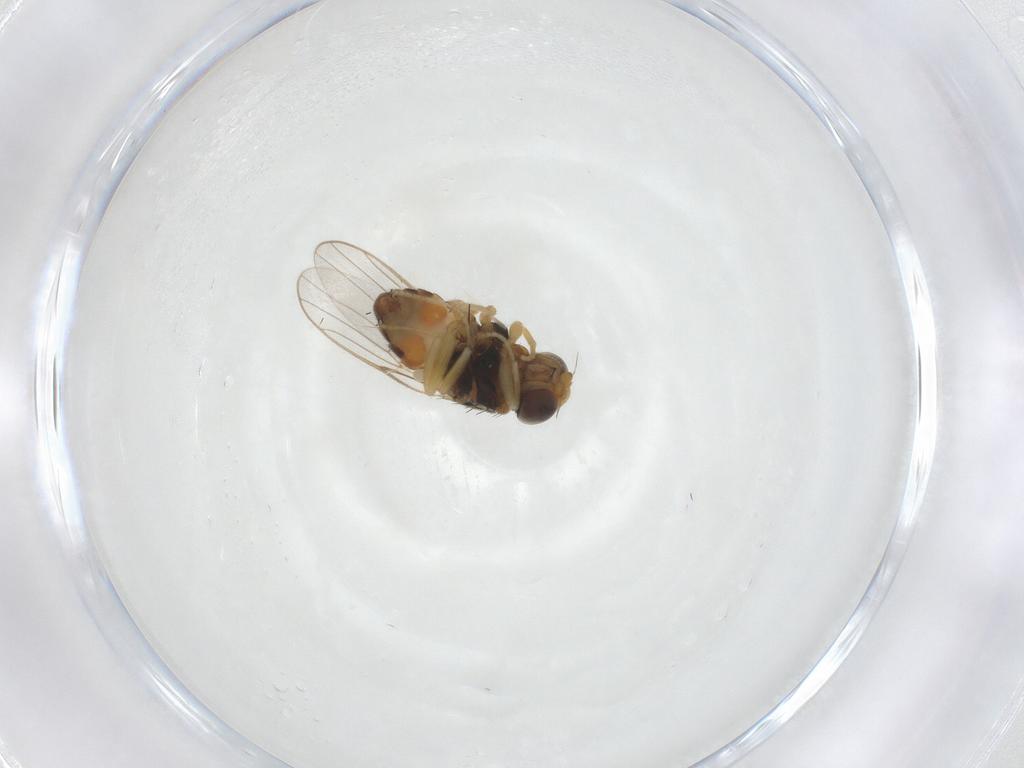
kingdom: Animalia
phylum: Arthropoda
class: Insecta
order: Diptera
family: Chloropidae
